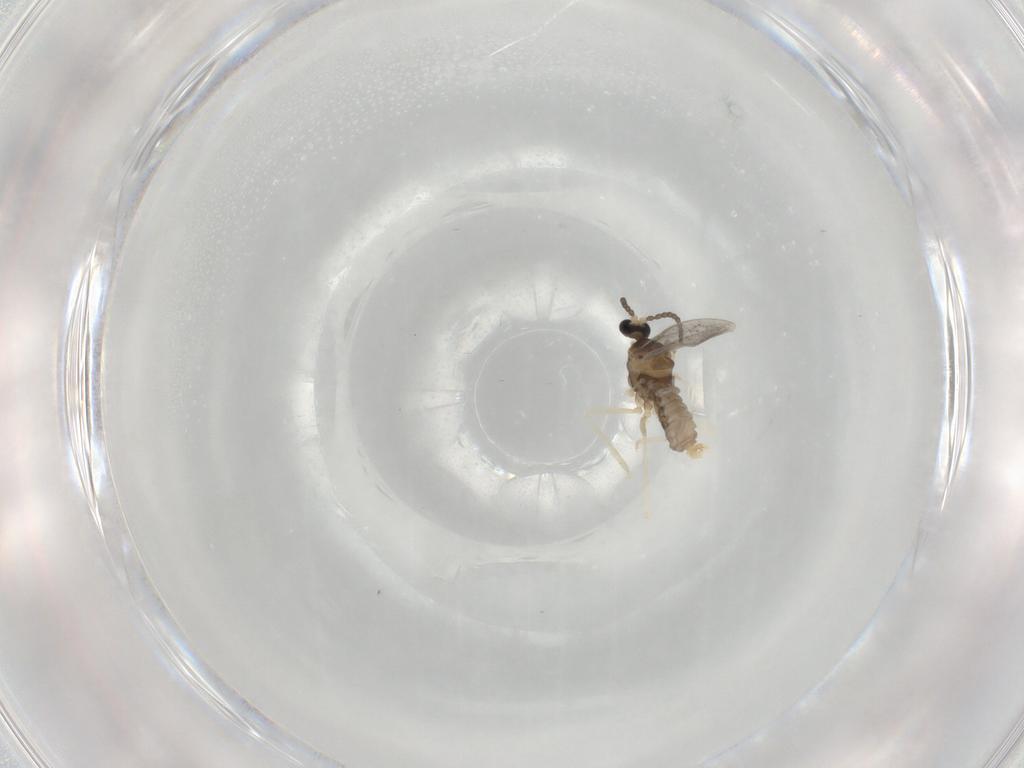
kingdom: Animalia
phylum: Arthropoda
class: Insecta
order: Diptera
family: Cecidomyiidae
